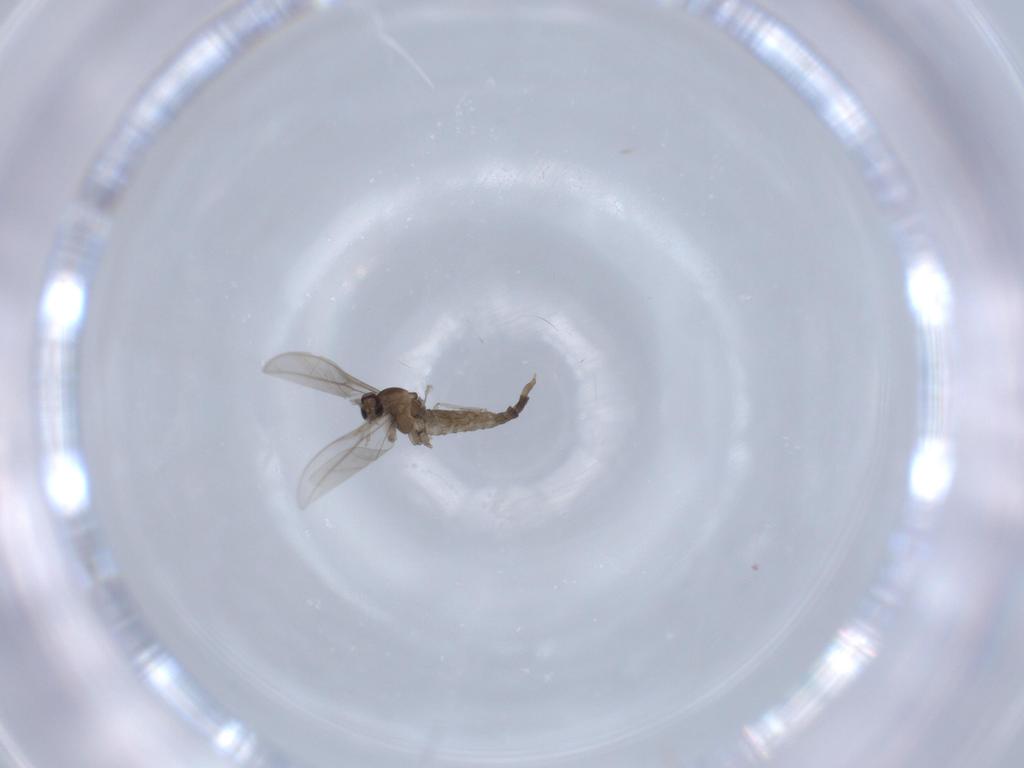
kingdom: Animalia
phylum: Arthropoda
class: Insecta
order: Diptera
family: Cecidomyiidae
